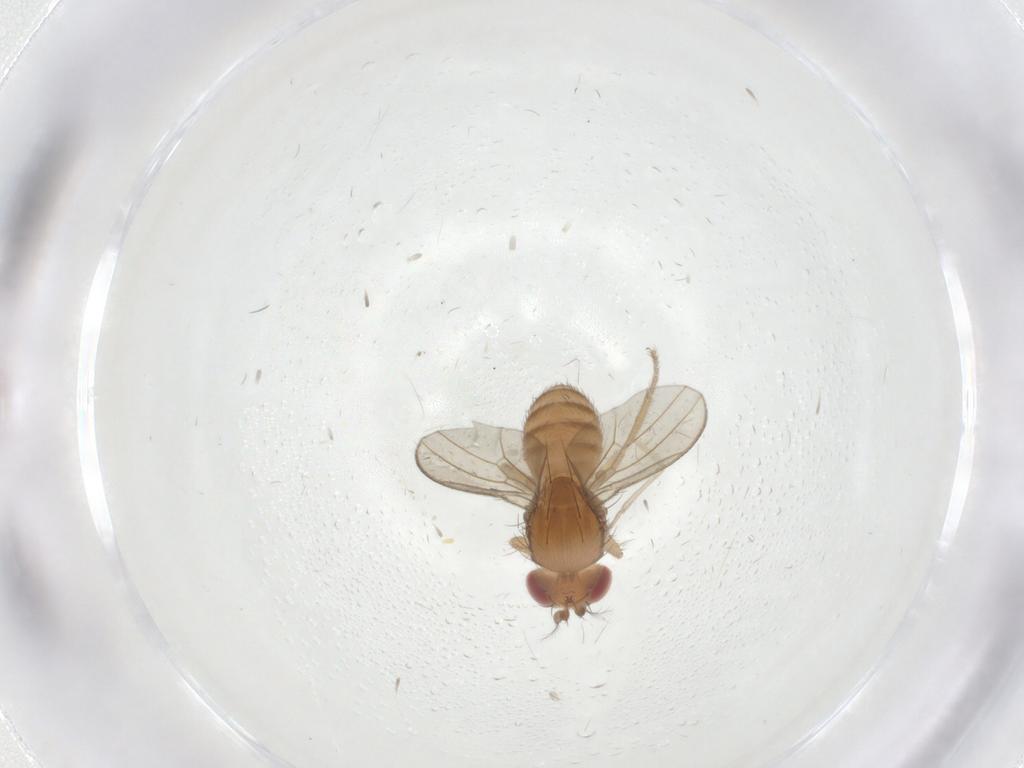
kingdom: Animalia
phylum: Arthropoda
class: Insecta
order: Diptera
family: Drosophilidae
